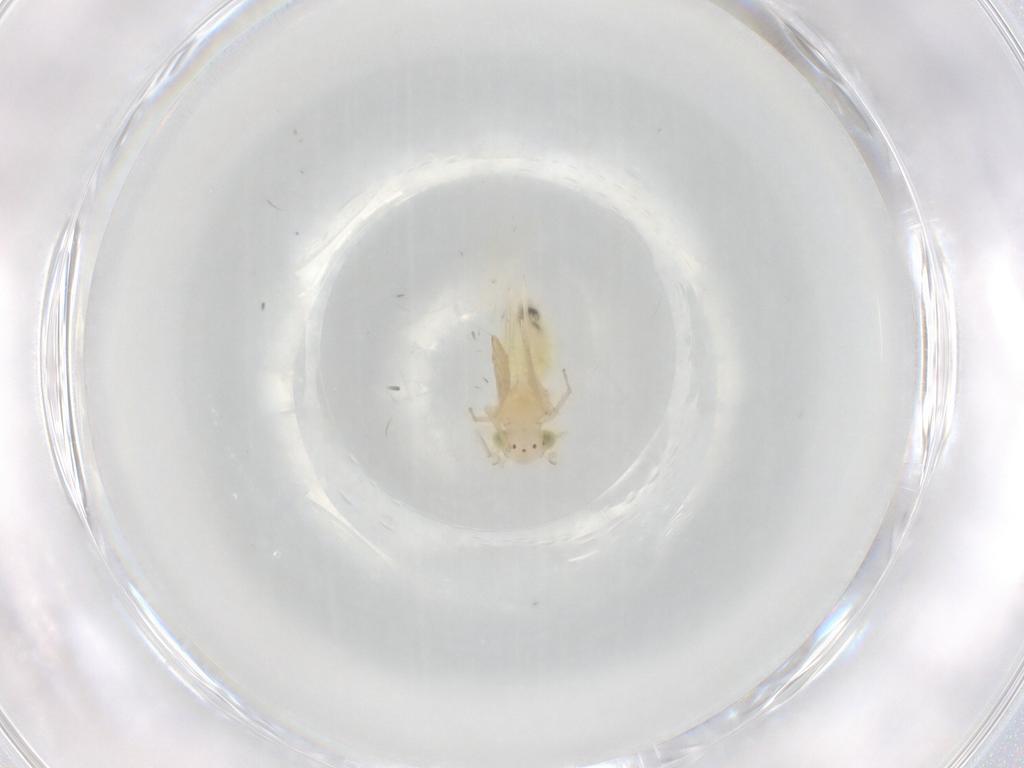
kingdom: Animalia
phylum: Arthropoda
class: Insecta
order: Psocodea
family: Lepidopsocidae
